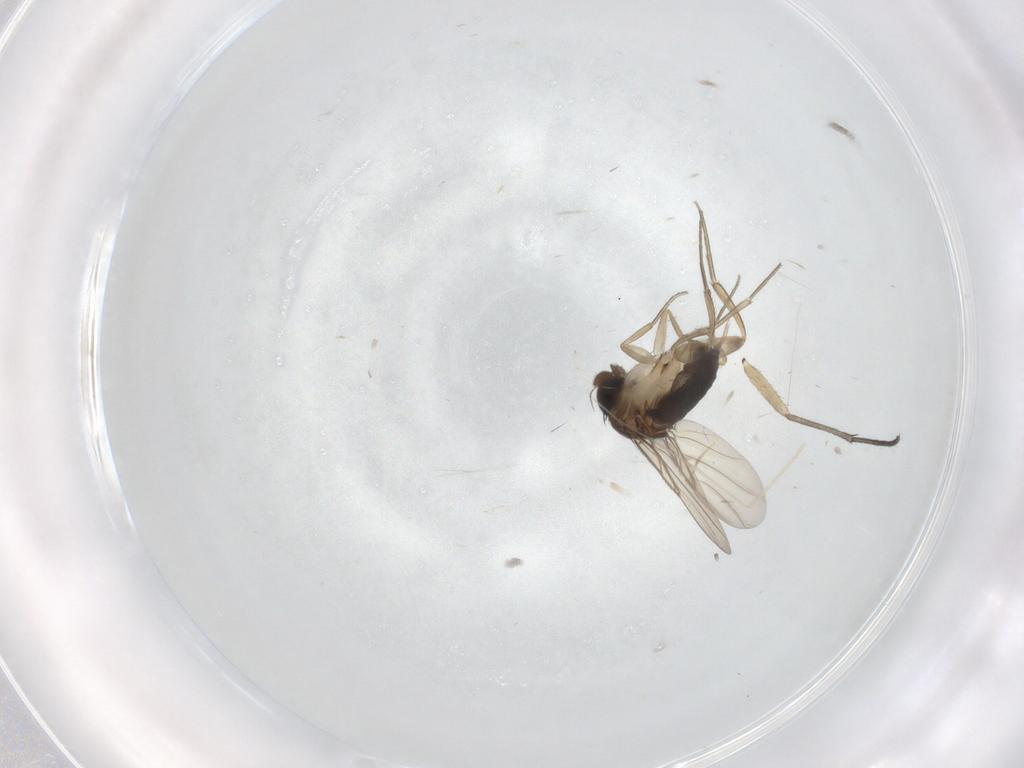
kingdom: Animalia
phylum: Arthropoda
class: Insecta
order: Diptera
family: Cecidomyiidae
